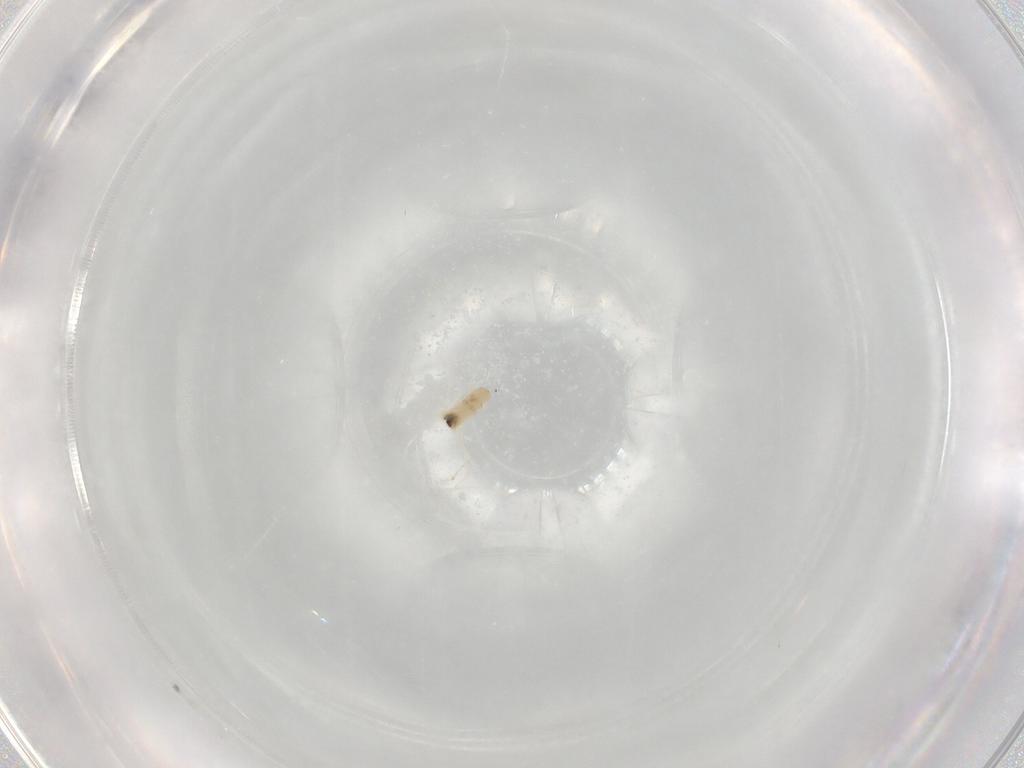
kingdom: Animalia
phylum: Arthropoda
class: Insecta
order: Diptera
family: Cecidomyiidae
